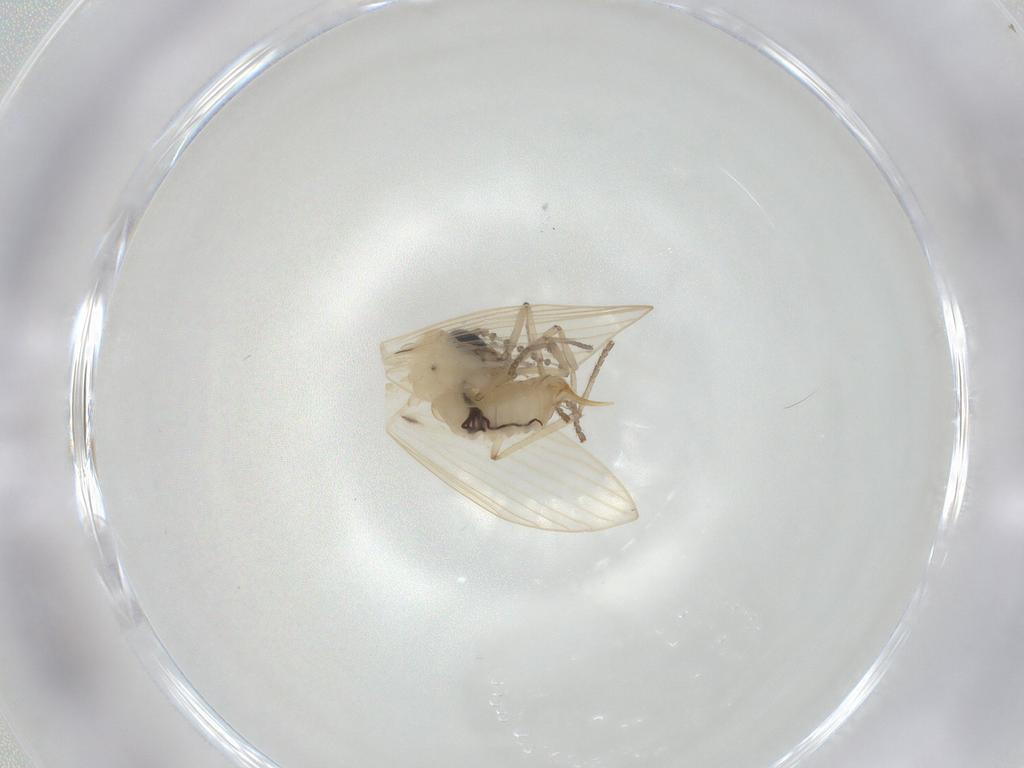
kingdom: Animalia
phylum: Arthropoda
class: Insecta
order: Diptera
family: Psychodidae
